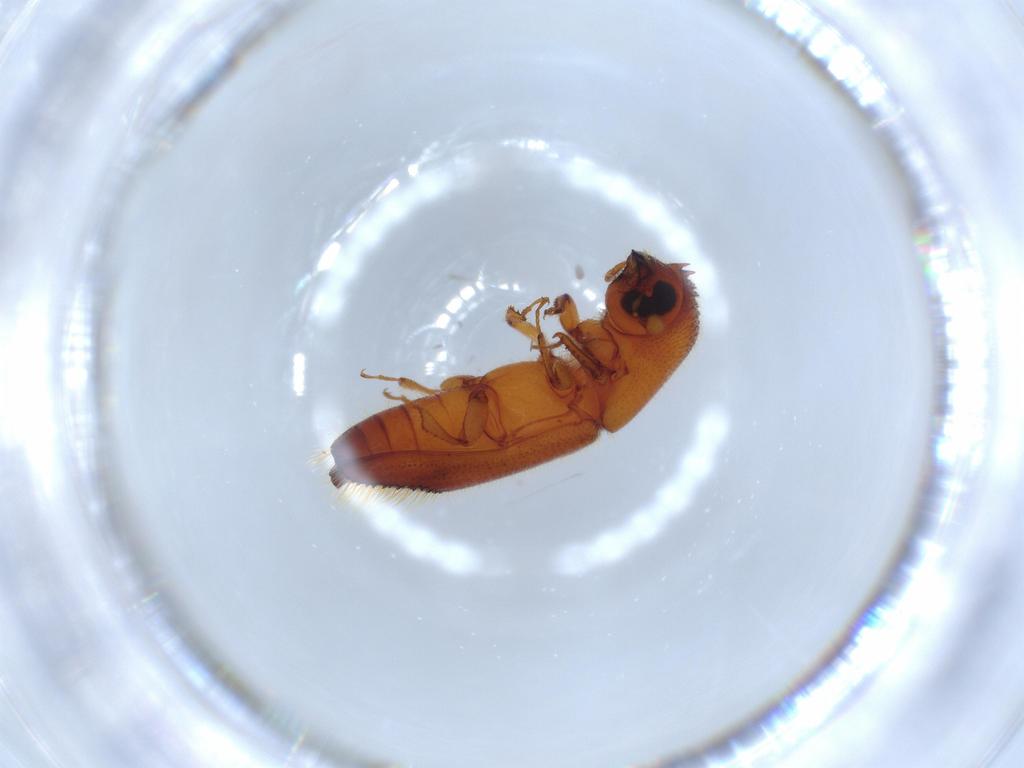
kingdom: Animalia
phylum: Arthropoda
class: Insecta
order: Coleoptera
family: Curculionidae
